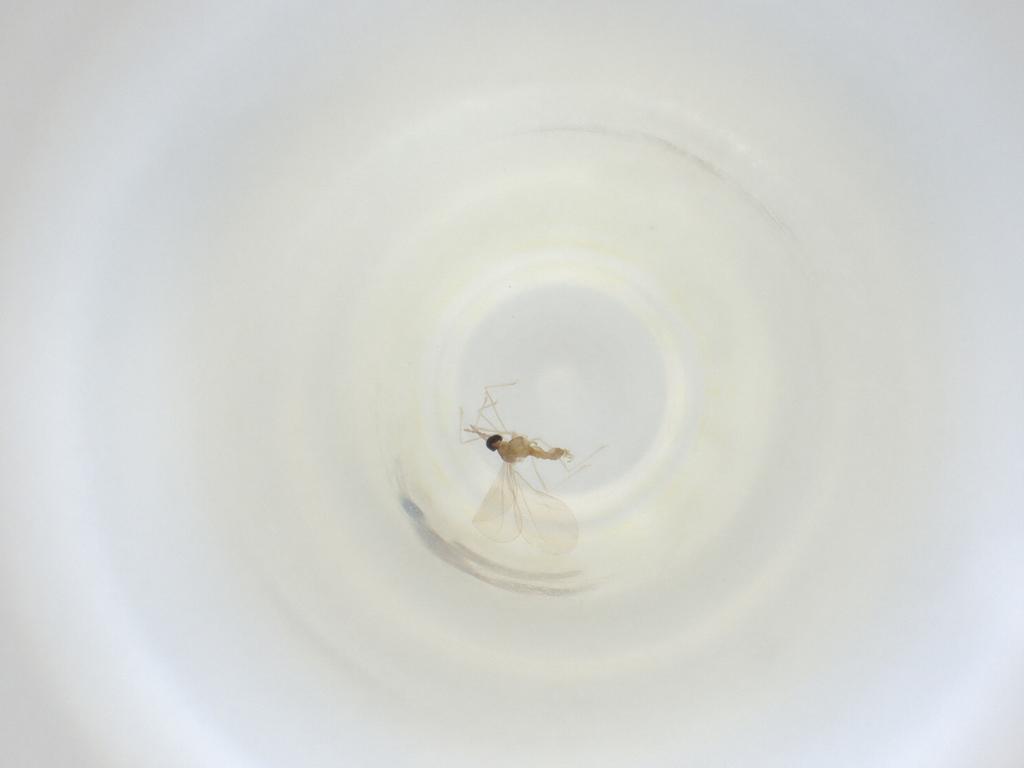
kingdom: Animalia
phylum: Arthropoda
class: Insecta
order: Diptera
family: Cecidomyiidae
